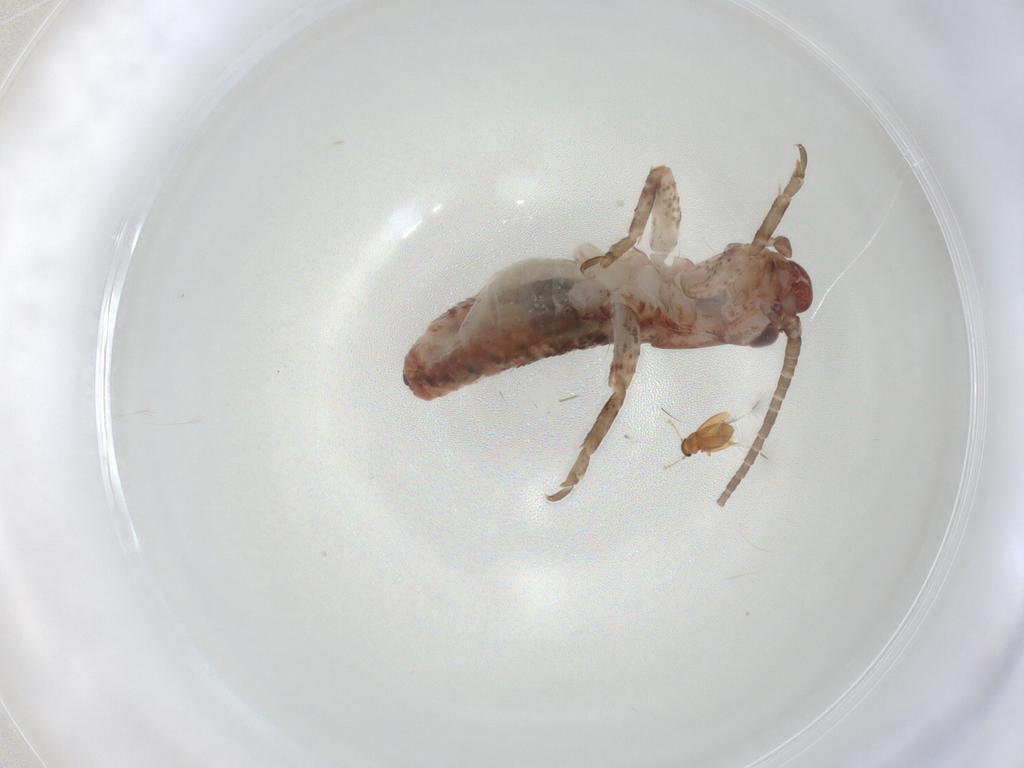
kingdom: Animalia
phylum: Arthropoda
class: Insecta
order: Orthoptera
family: Mogoplistidae
